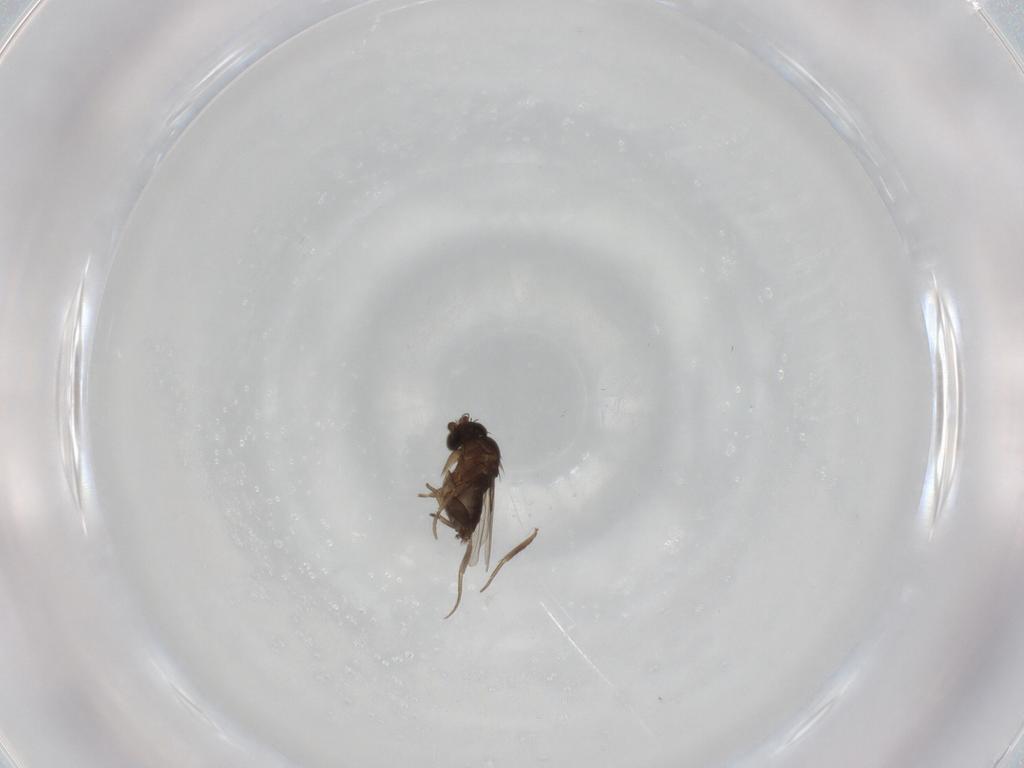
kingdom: Animalia
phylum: Arthropoda
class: Insecta
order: Diptera
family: Phoridae
